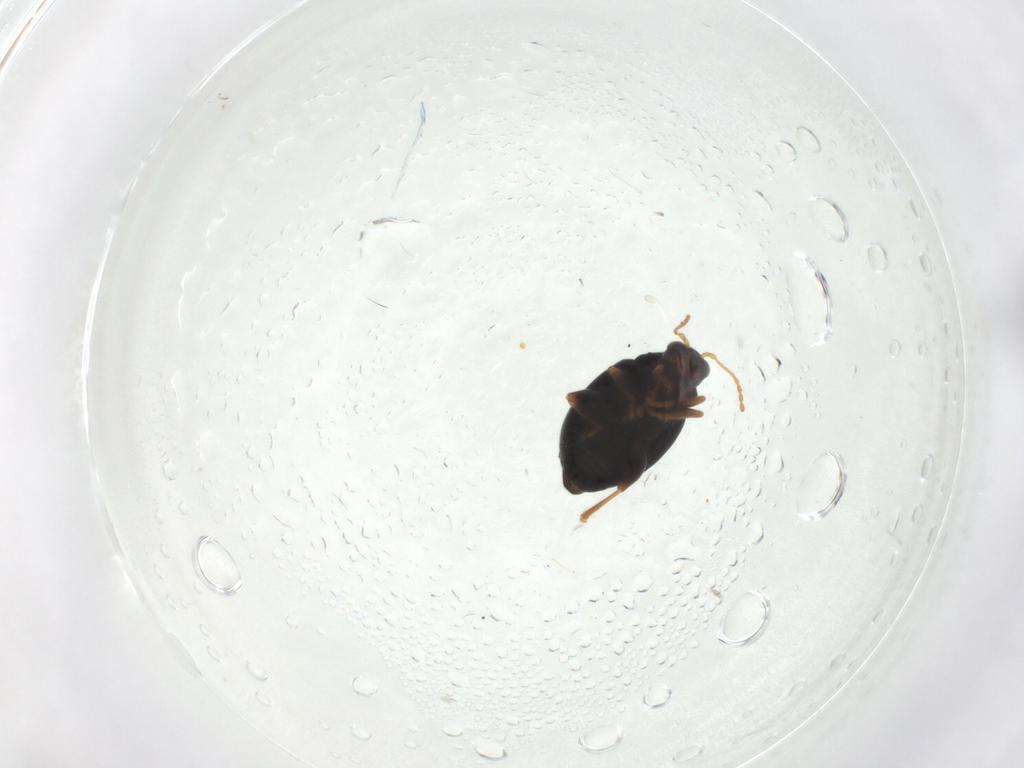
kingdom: Animalia
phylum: Arthropoda
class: Insecta
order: Coleoptera
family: Chrysomelidae
